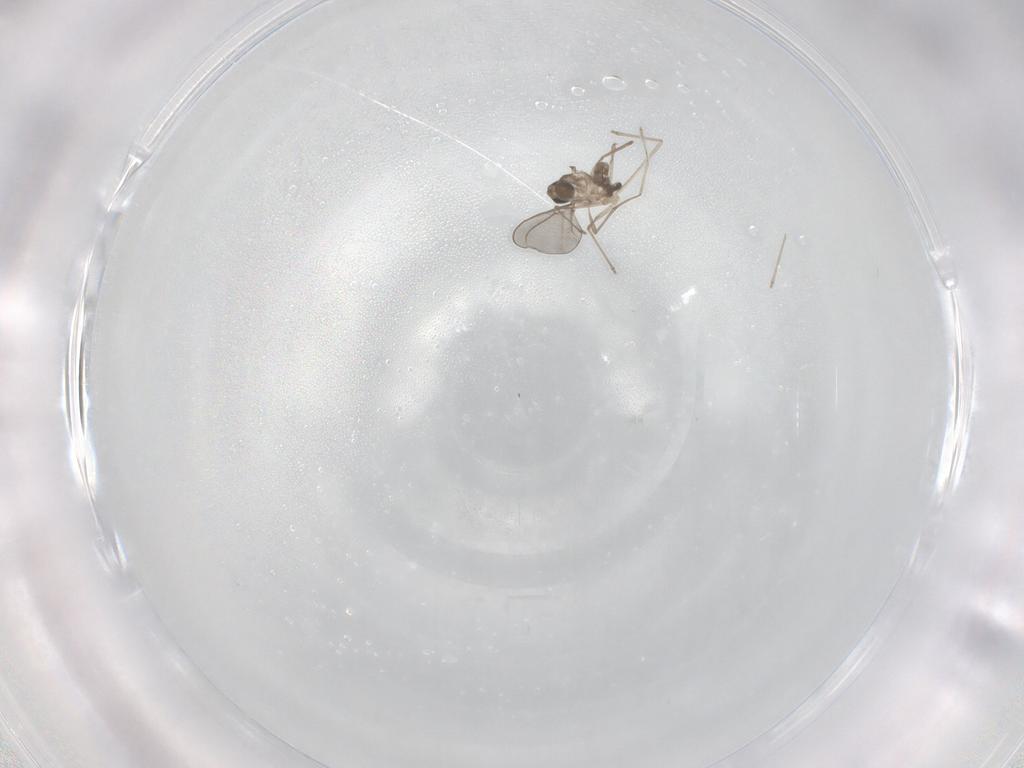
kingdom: Animalia
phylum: Arthropoda
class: Insecta
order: Diptera
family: Cecidomyiidae
